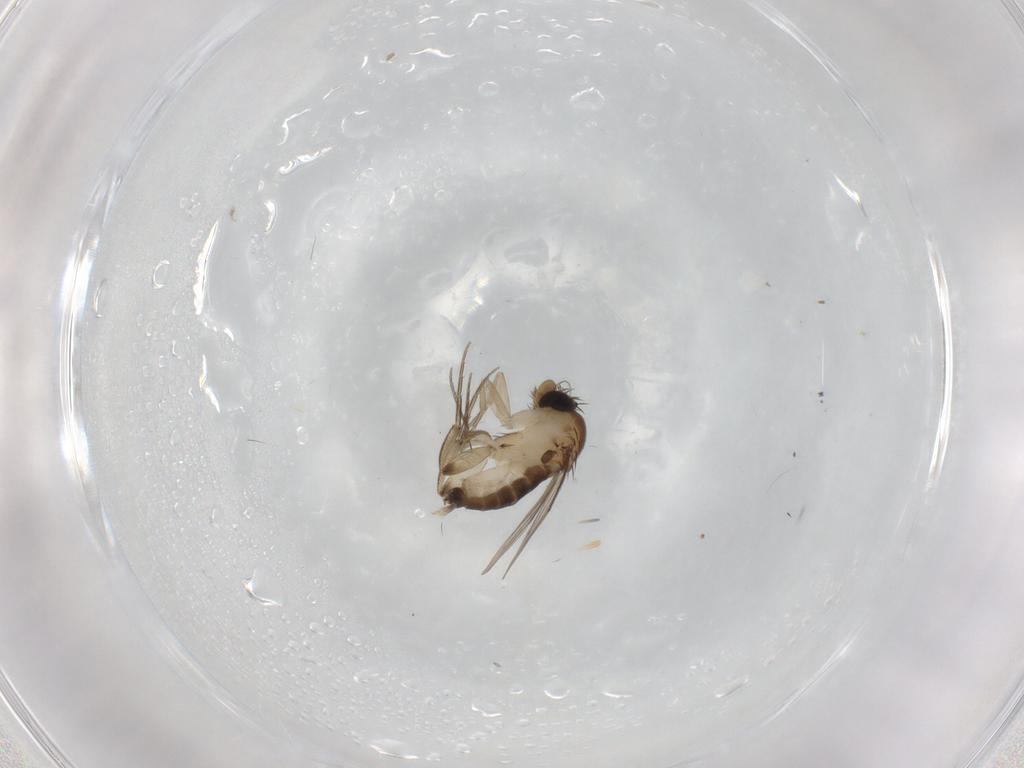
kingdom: Animalia
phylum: Arthropoda
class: Insecta
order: Diptera
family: Phoridae
